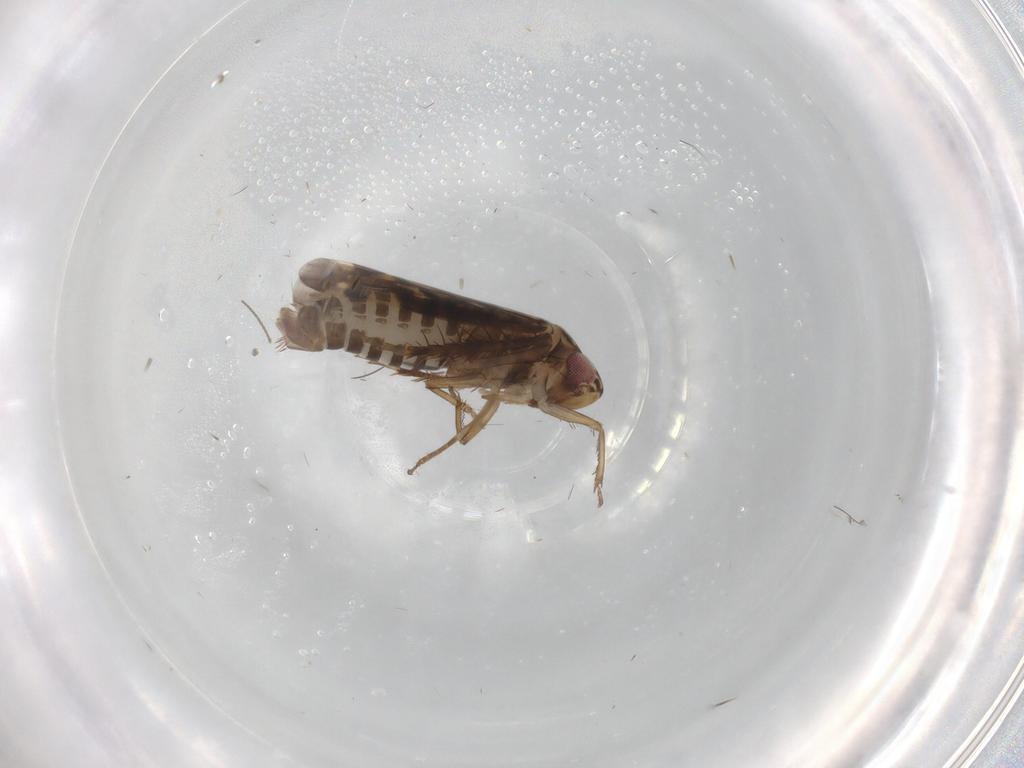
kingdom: Animalia
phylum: Arthropoda
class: Insecta
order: Hemiptera
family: Cicadellidae
